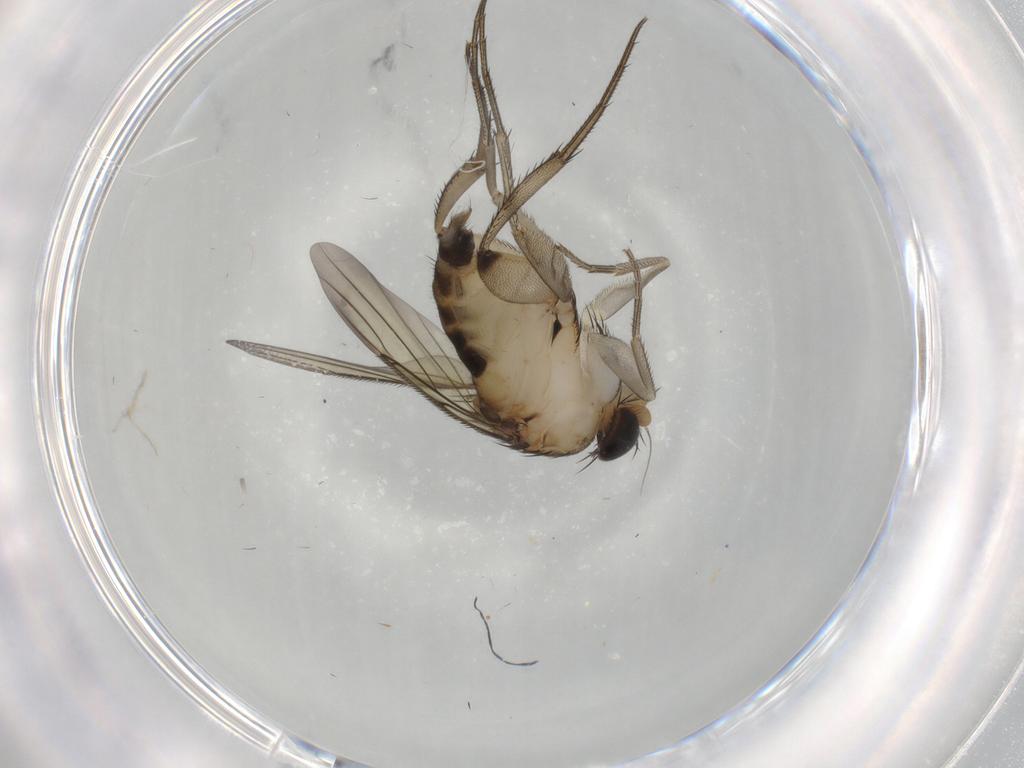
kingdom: Animalia
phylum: Arthropoda
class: Insecta
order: Diptera
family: Phoridae
